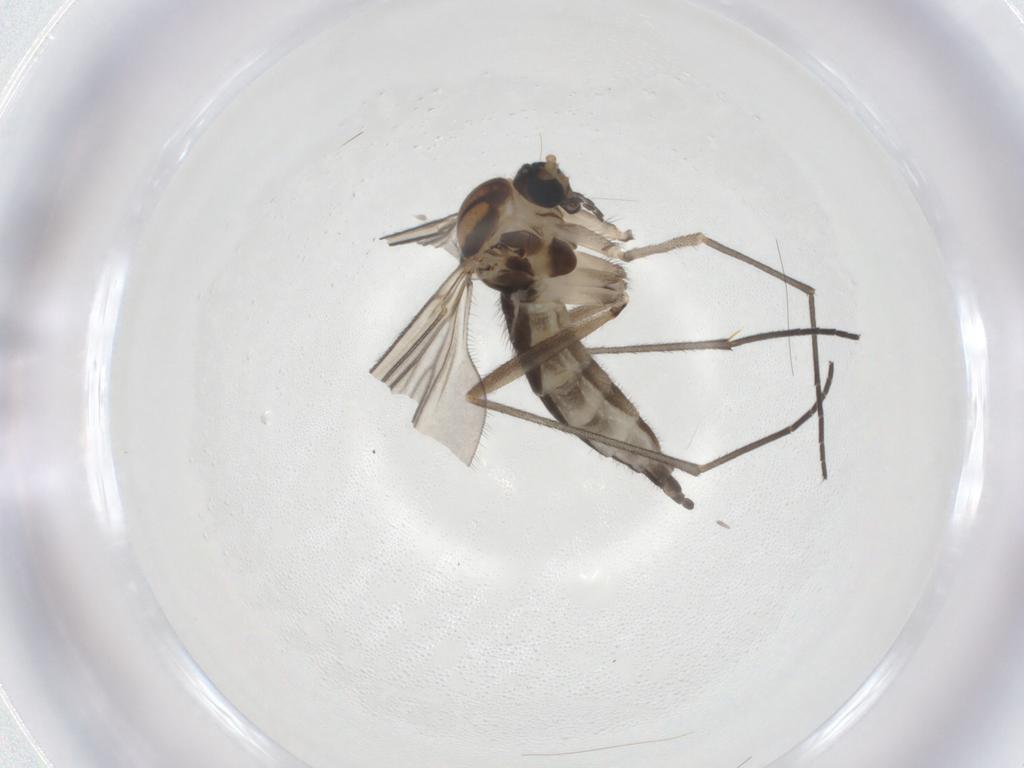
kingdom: Animalia
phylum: Arthropoda
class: Insecta
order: Diptera
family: Sciaridae
